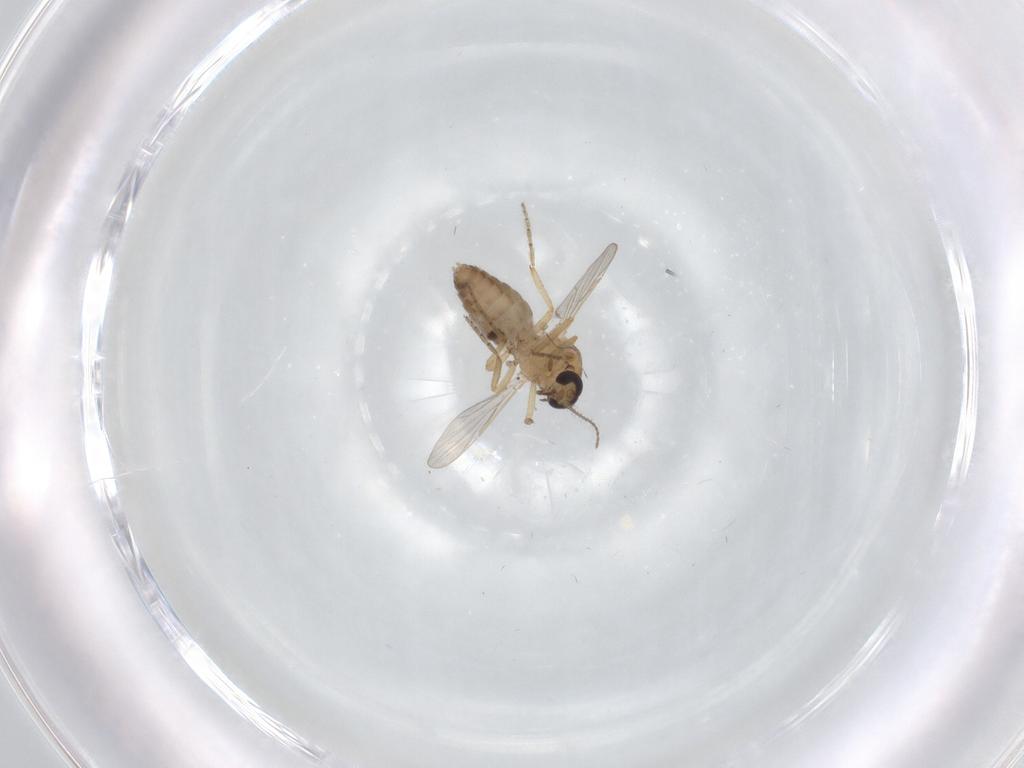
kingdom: Animalia
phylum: Arthropoda
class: Insecta
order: Diptera
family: Ceratopogonidae
